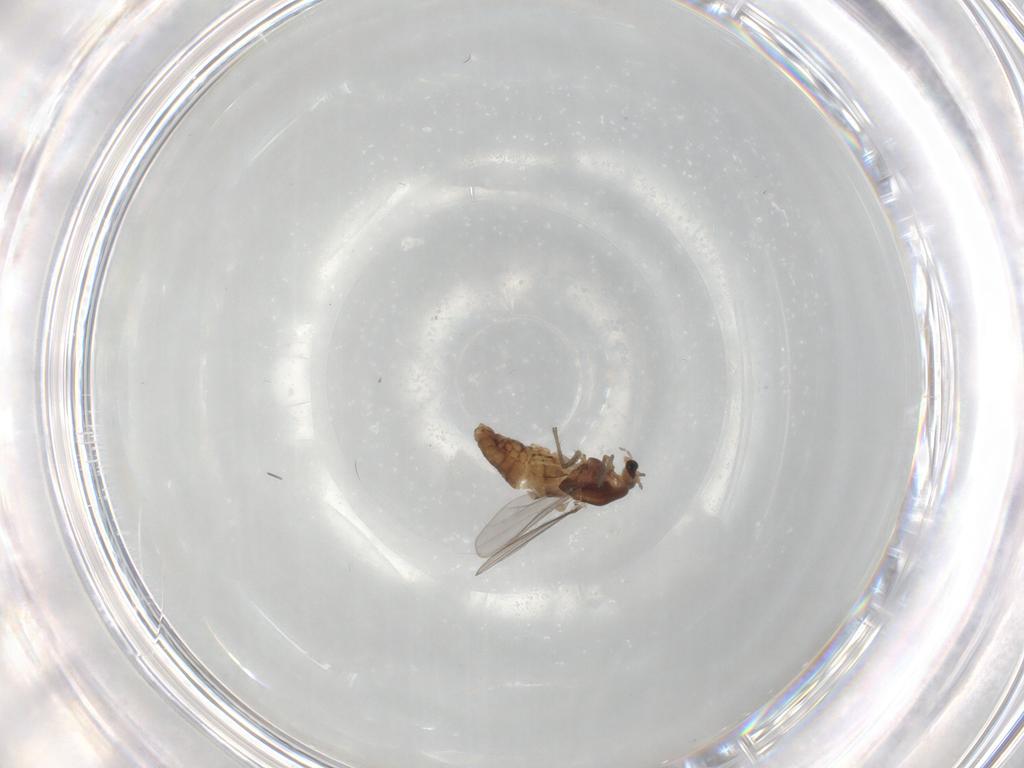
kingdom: Animalia
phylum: Arthropoda
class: Insecta
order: Diptera
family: Chironomidae
